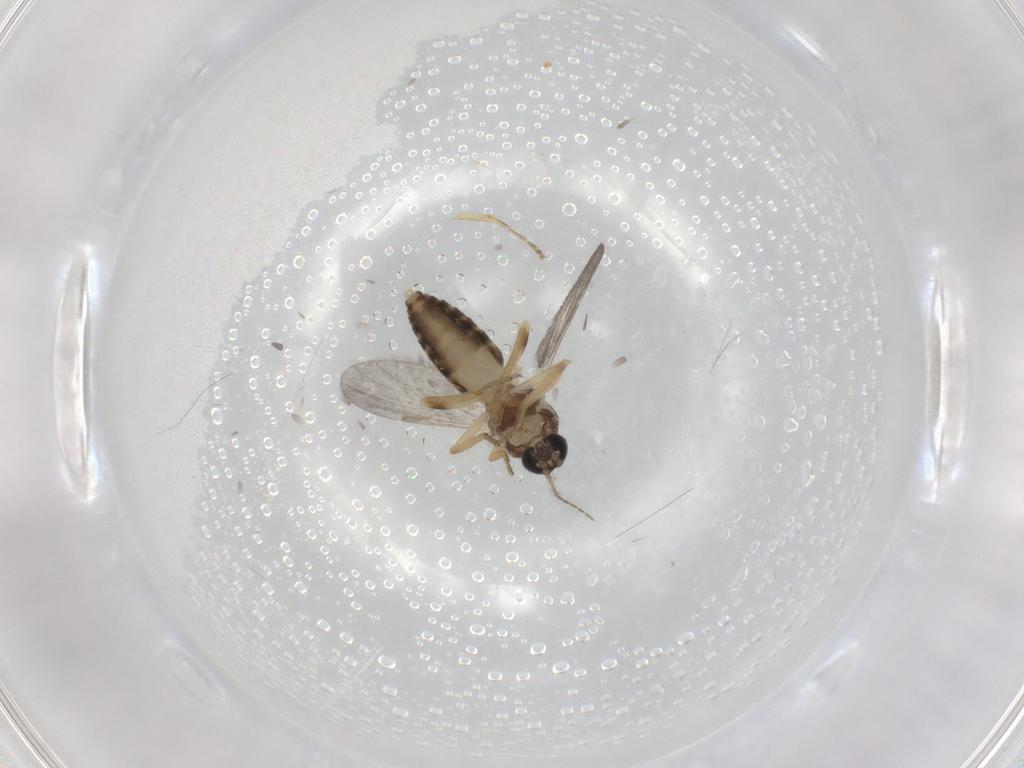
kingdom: Animalia
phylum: Arthropoda
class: Insecta
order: Diptera
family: Ceratopogonidae
